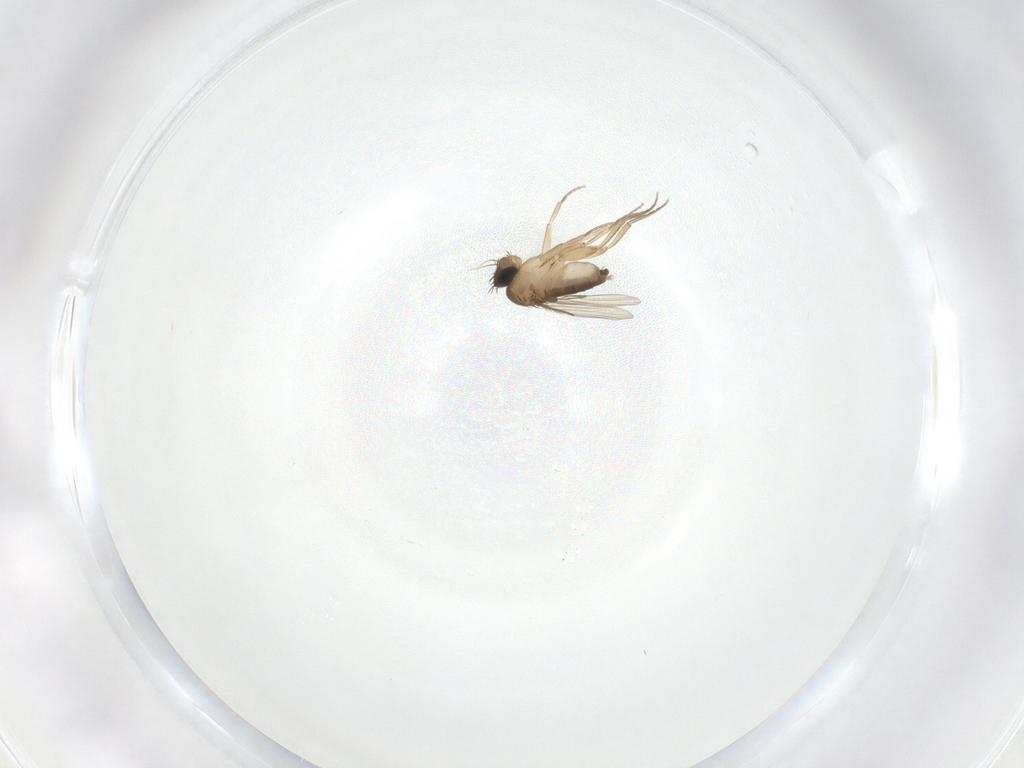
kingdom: Animalia
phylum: Arthropoda
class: Insecta
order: Diptera
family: Phoridae
